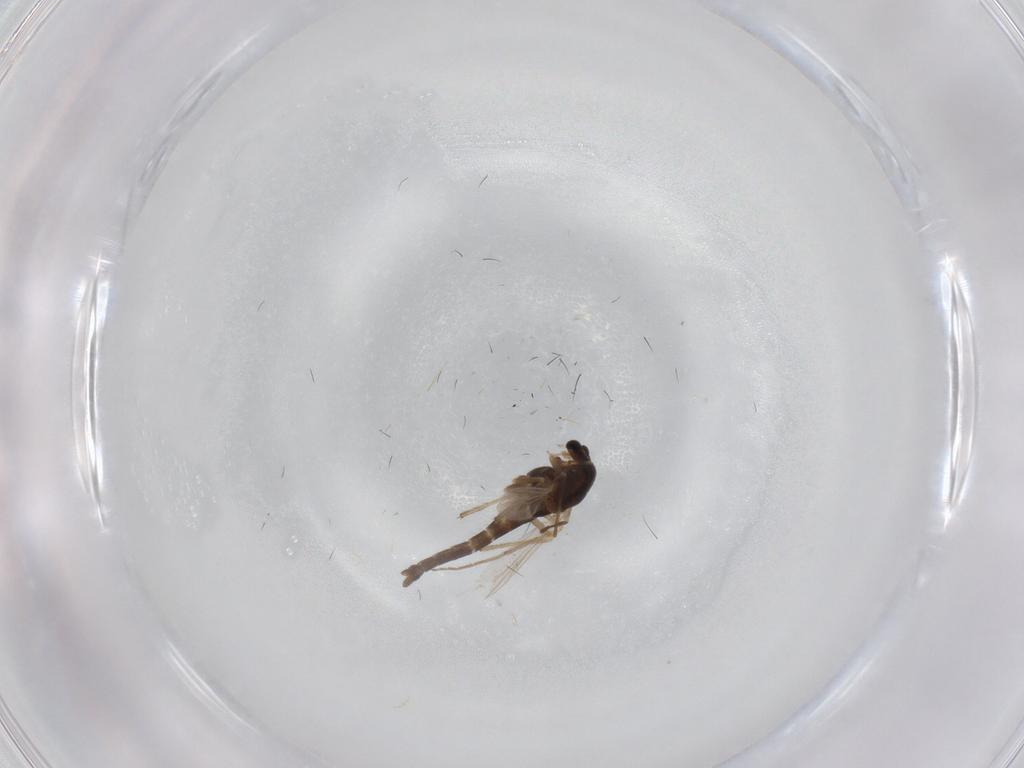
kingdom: Animalia
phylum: Arthropoda
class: Insecta
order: Diptera
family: Chironomidae
